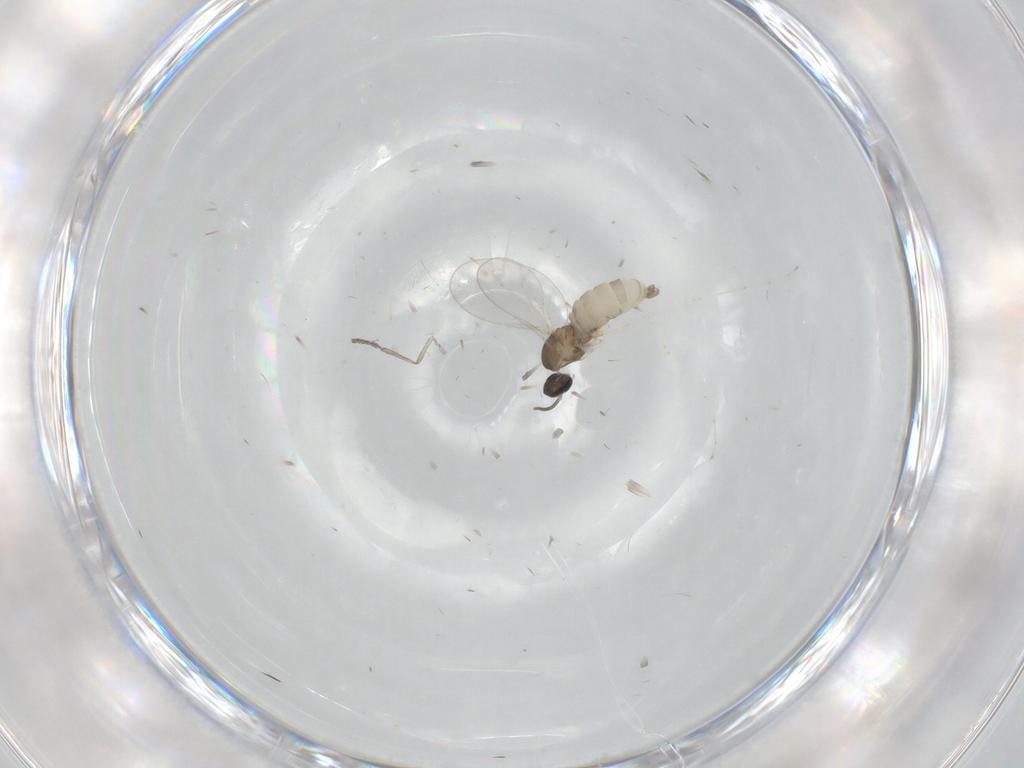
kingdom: Animalia
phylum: Arthropoda
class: Insecta
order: Diptera
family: Psychodidae
